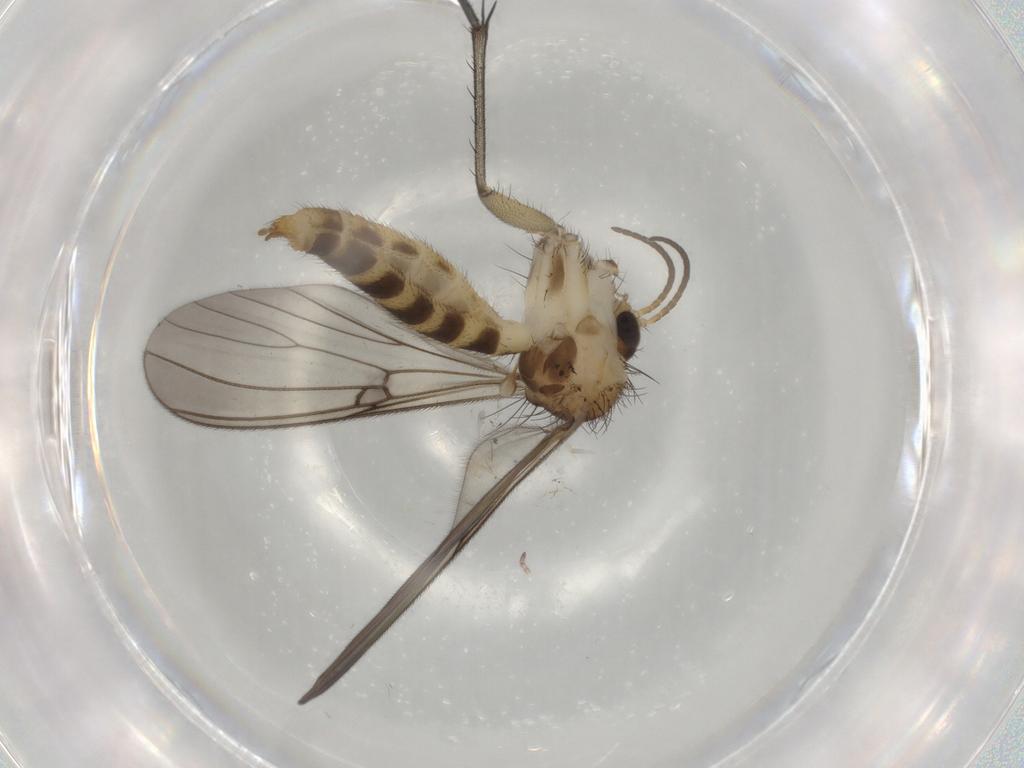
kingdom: Animalia
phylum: Arthropoda
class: Insecta
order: Diptera
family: Mycetophilidae
